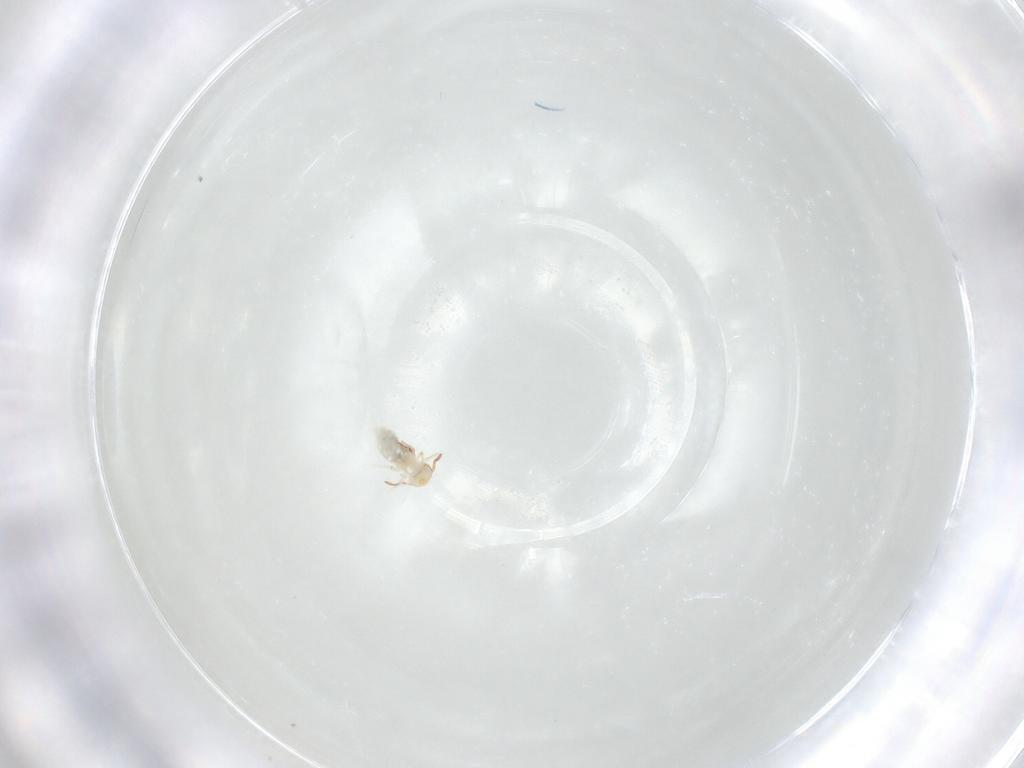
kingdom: Animalia
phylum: Arthropoda
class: Collembola
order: Symphypleona
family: Bourletiellidae
